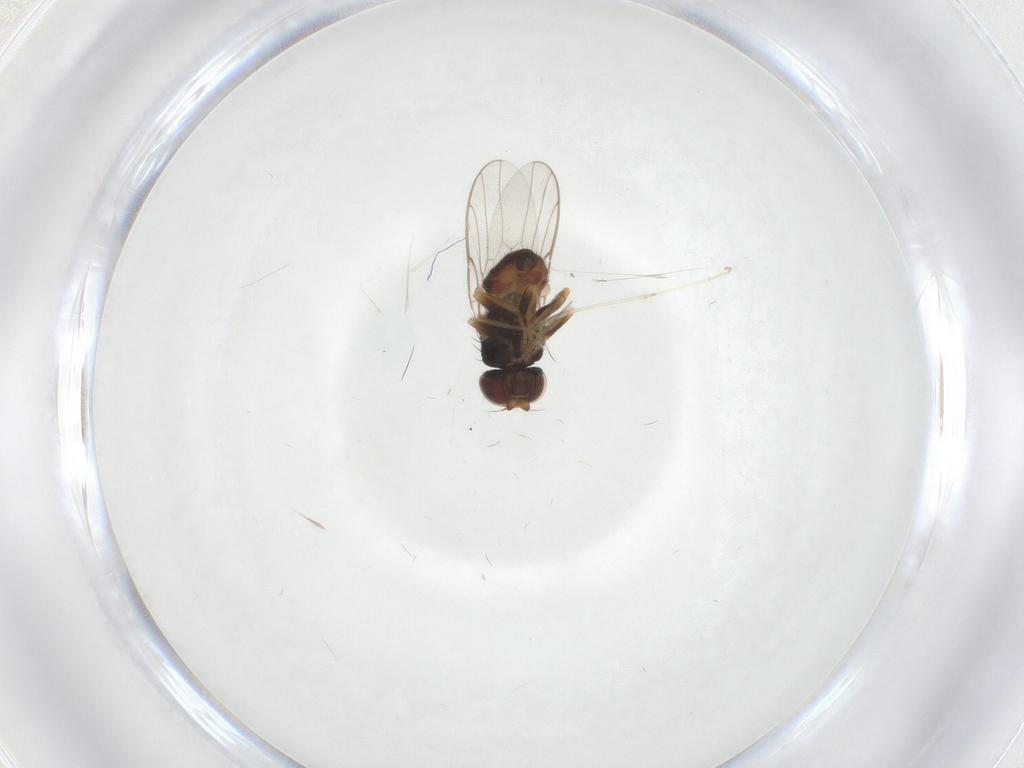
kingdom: Animalia
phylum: Arthropoda
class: Insecta
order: Diptera
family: Chloropidae
